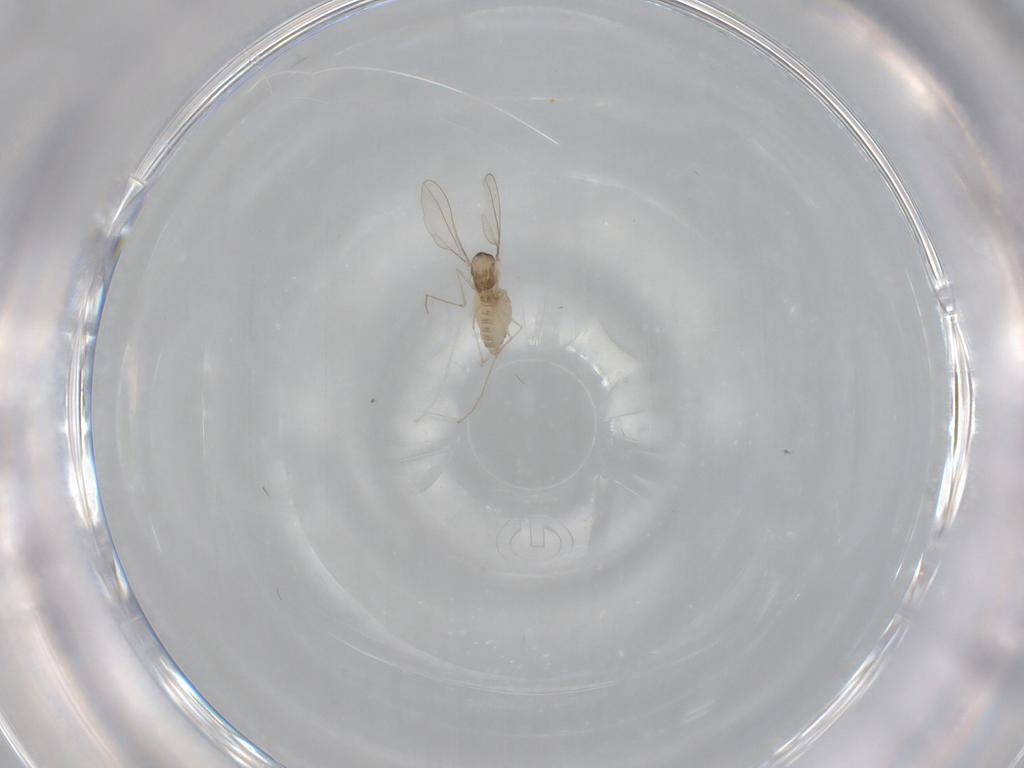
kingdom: Animalia
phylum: Arthropoda
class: Insecta
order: Diptera
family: Cecidomyiidae
